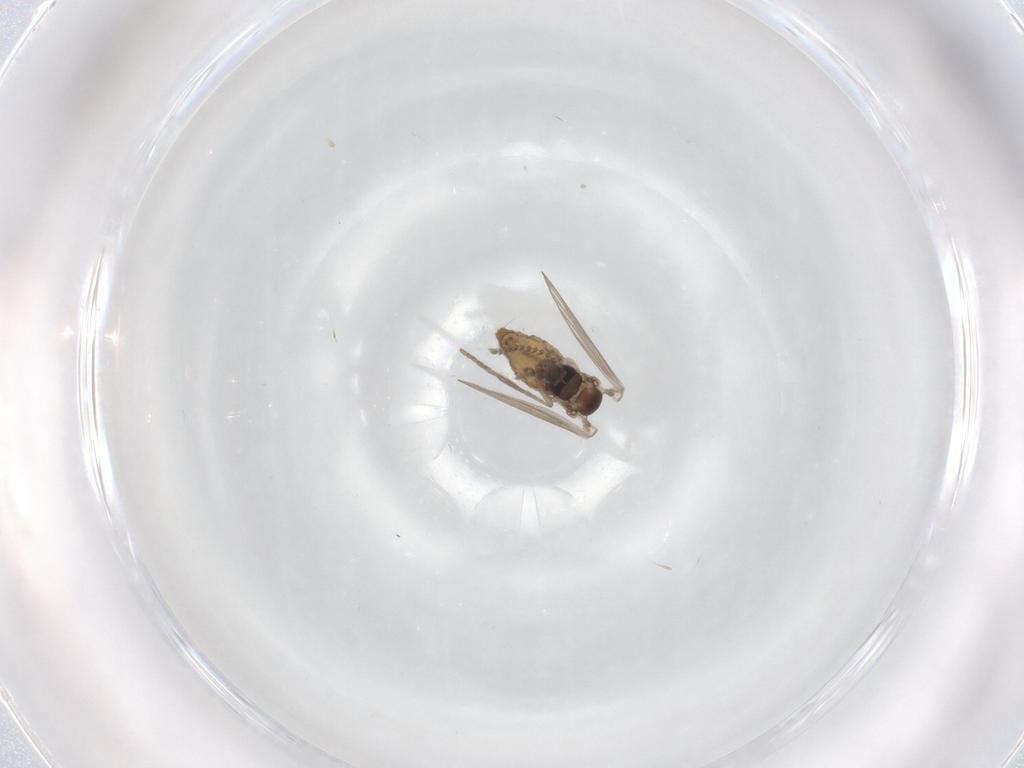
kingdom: Animalia
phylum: Arthropoda
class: Insecta
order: Diptera
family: Psychodidae
